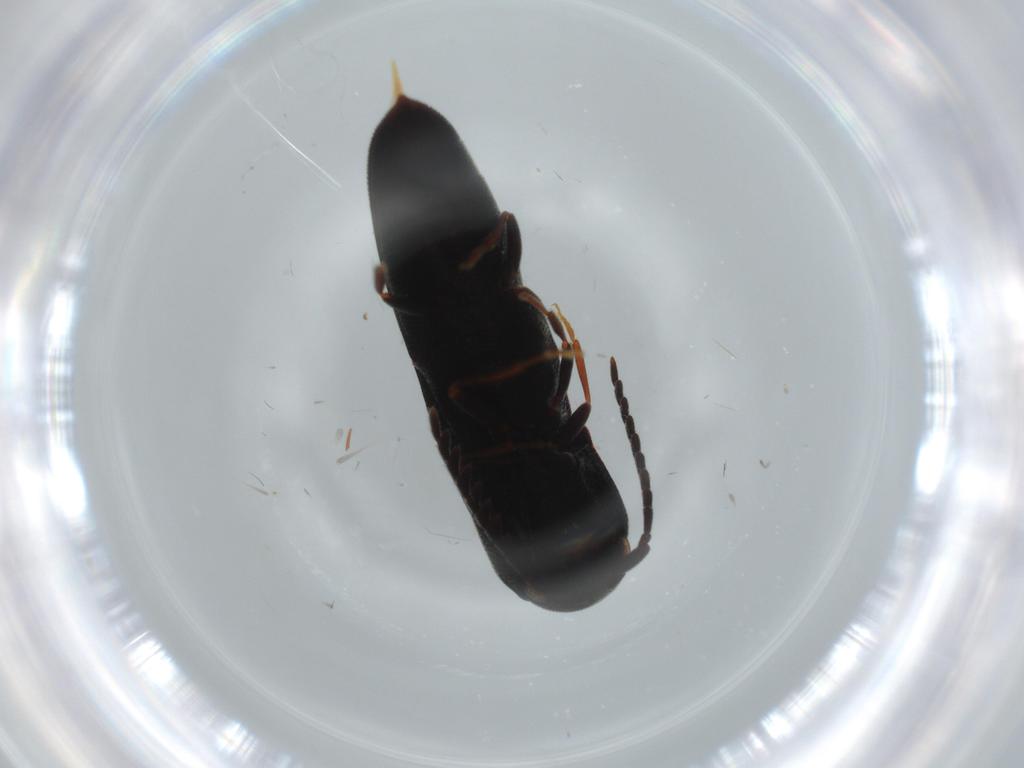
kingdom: Animalia
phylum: Arthropoda
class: Insecta
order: Coleoptera
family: Eucnemidae
